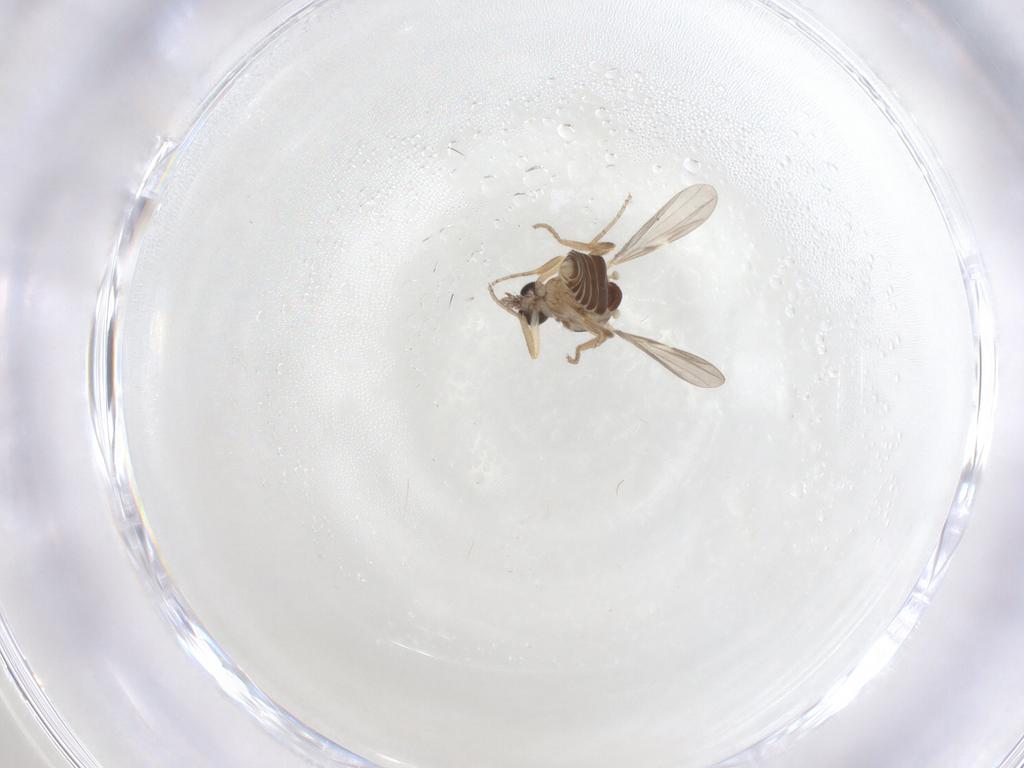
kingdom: Animalia
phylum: Arthropoda
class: Insecta
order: Diptera
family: Ceratopogonidae
